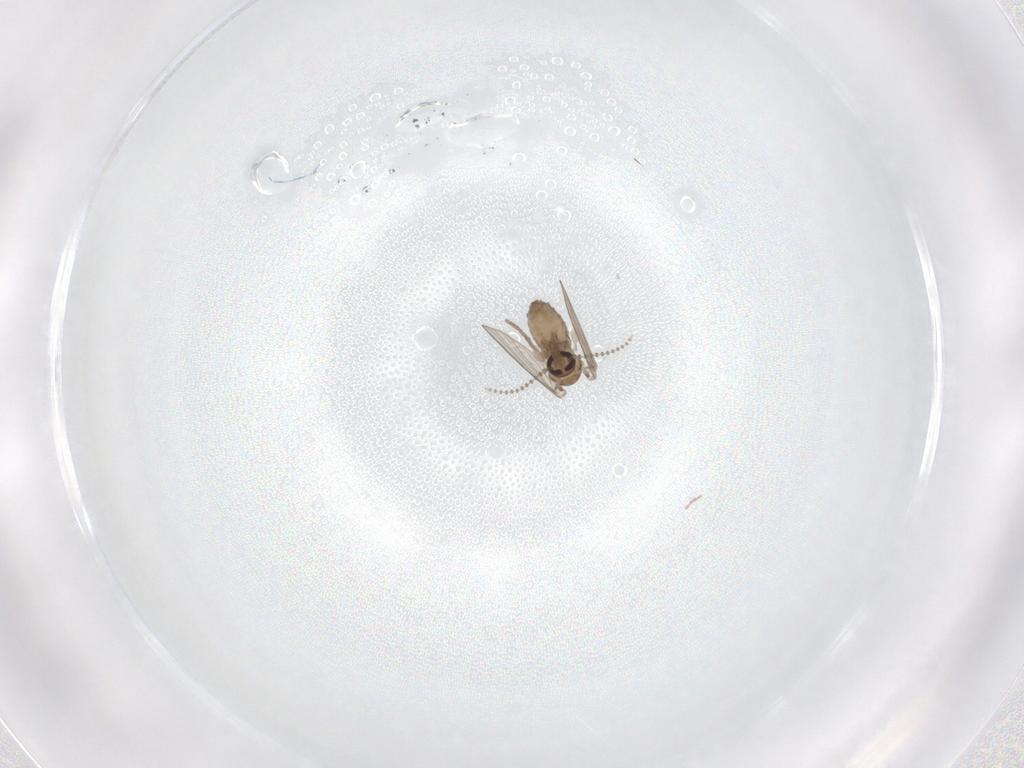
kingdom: Animalia
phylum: Arthropoda
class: Insecta
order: Diptera
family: Psychodidae
